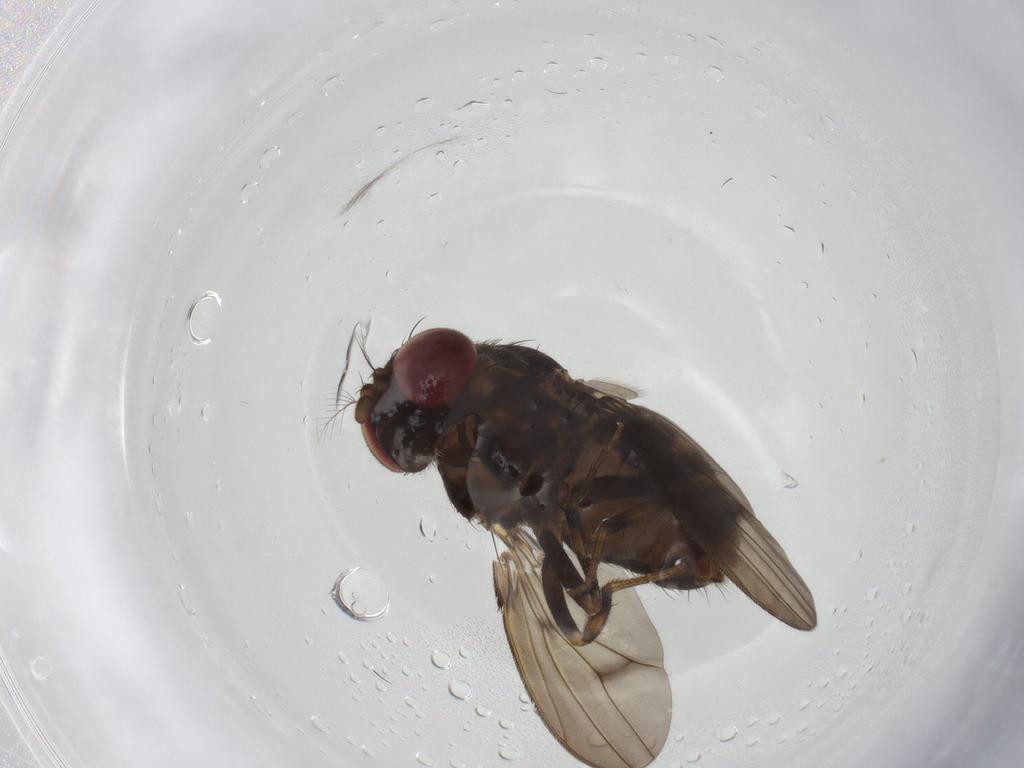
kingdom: Animalia
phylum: Arthropoda
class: Insecta
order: Diptera
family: Drosophilidae
